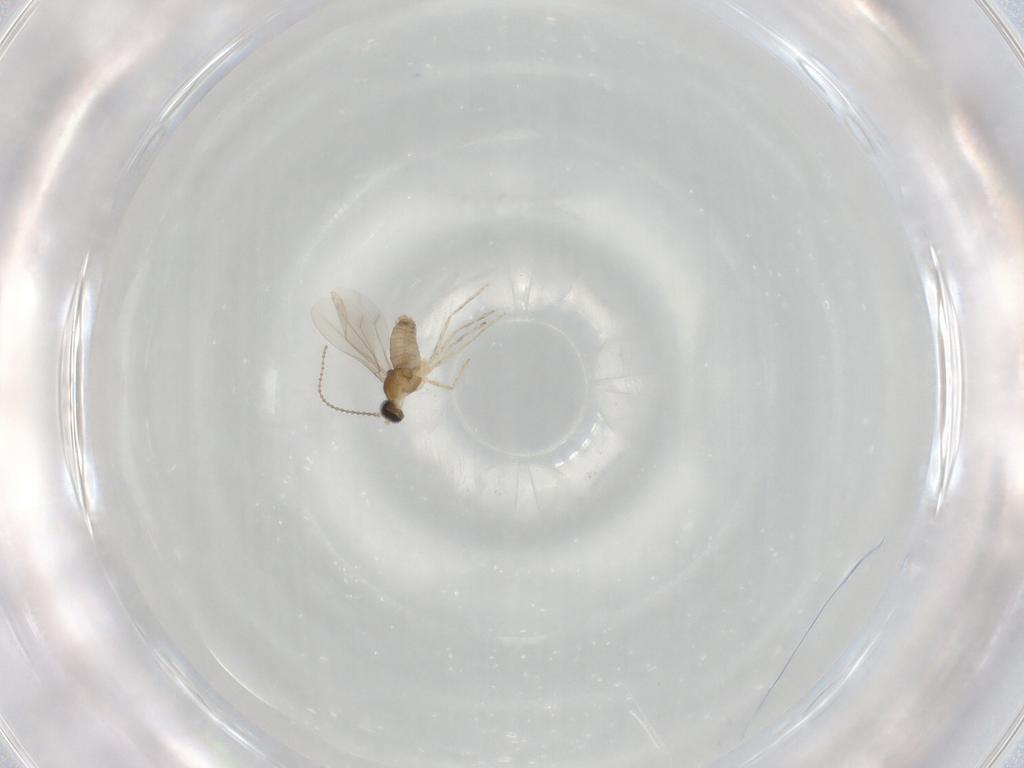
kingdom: Animalia
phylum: Arthropoda
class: Insecta
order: Diptera
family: Cecidomyiidae
